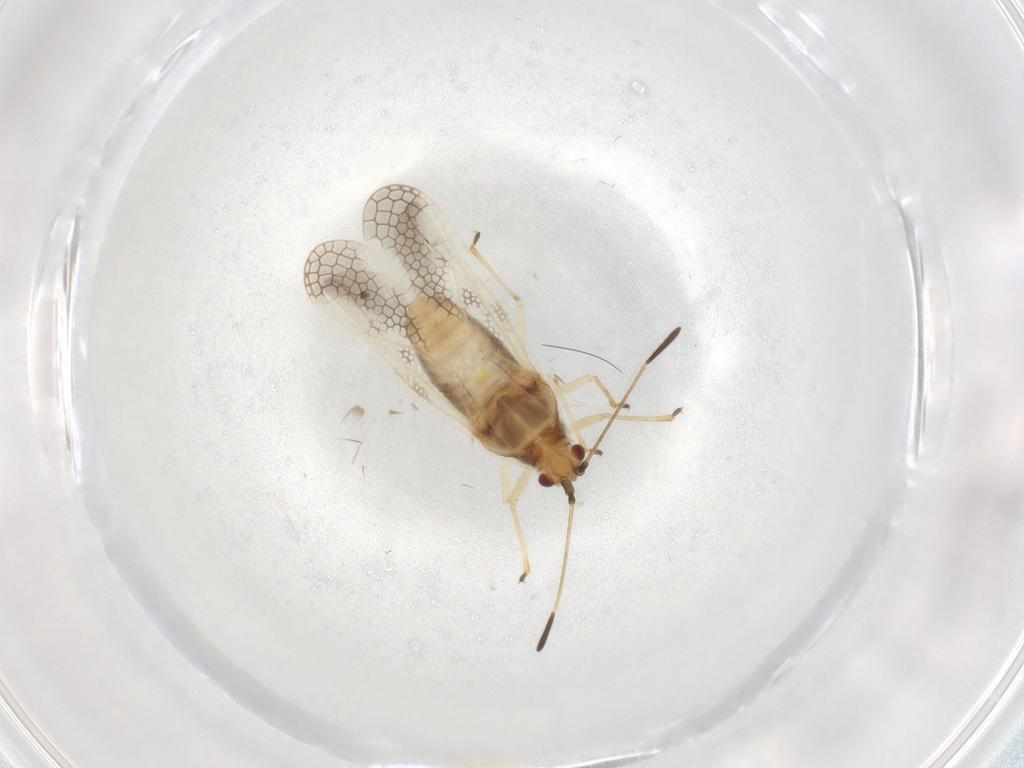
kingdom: Animalia
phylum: Arthropoda
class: Insecta
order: Hemiptera
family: Tingidae
